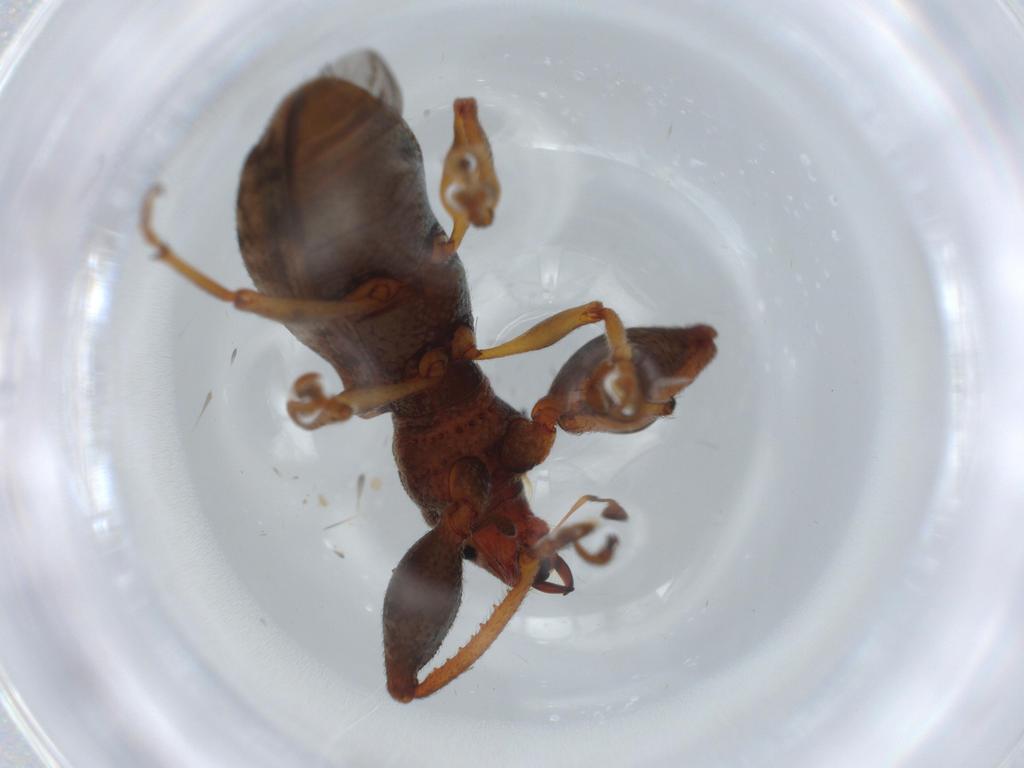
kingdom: Animalia
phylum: Arthropoda
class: Insecta
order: Coleoptera
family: Curculionidae
